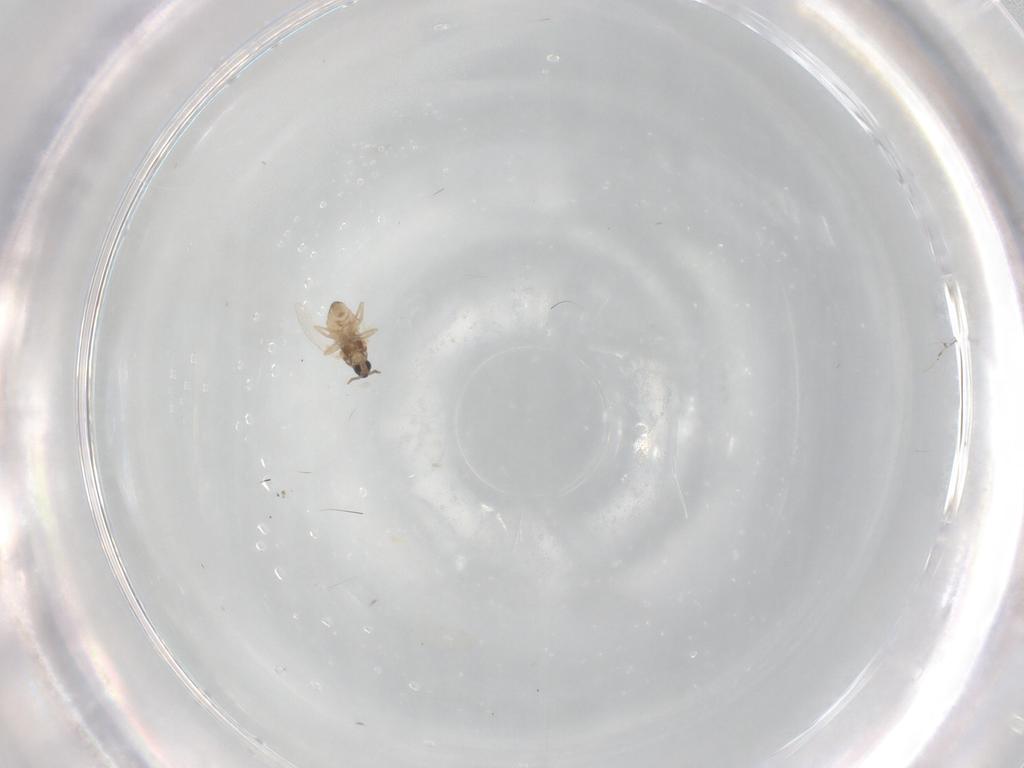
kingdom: Animalia
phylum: Arthropoda
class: Insecta
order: Diptera
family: Cecidomyiidae
